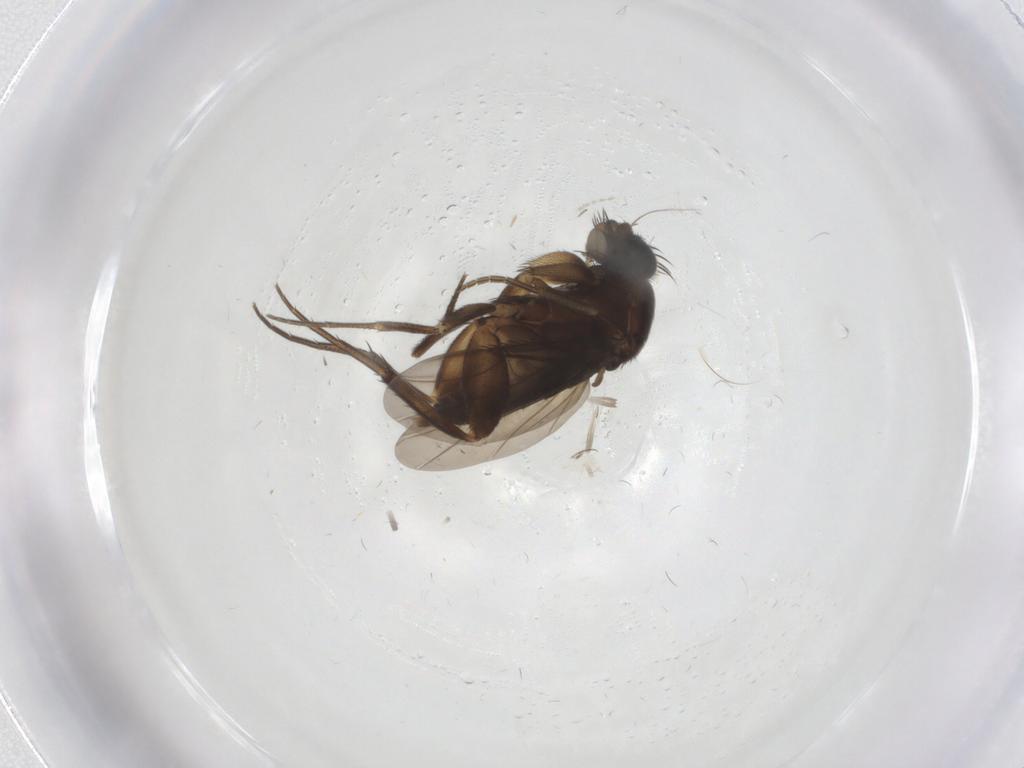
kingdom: Animalia
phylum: Arthropoda
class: Insecta
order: Diptera
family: Phoridae
